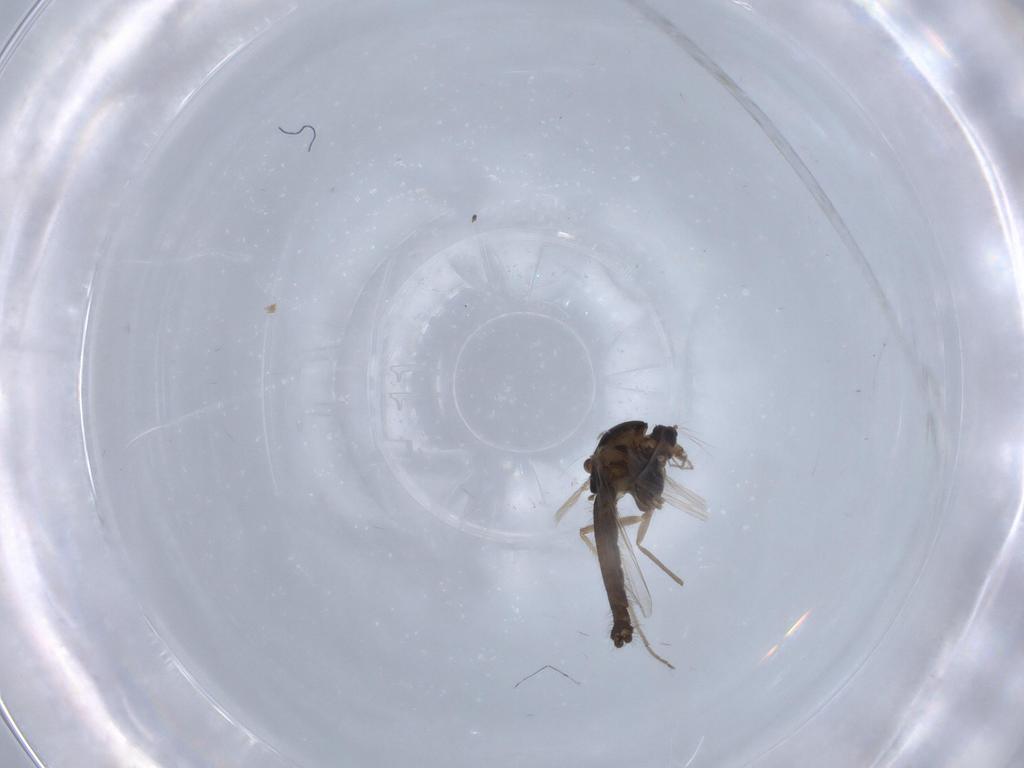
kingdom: Animalia
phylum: Arthropoda
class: Insecta
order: Diptera
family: Chironomidae
